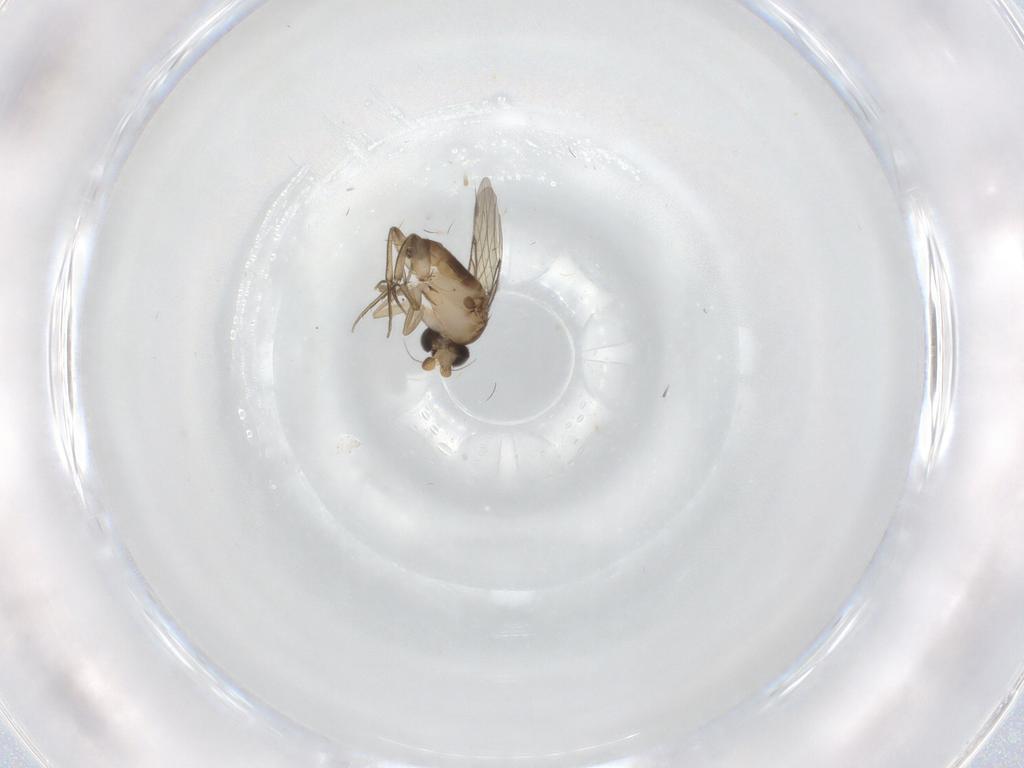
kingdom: Animalia
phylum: Arthropoda
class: Insecta
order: Diptera
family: Phoridae
